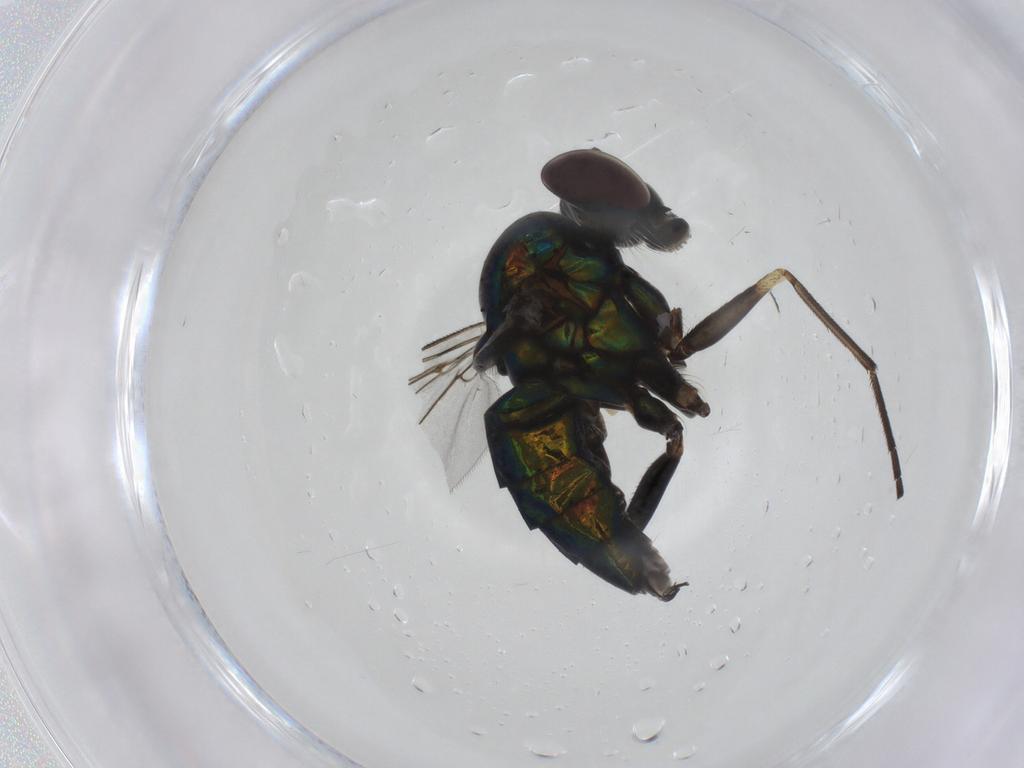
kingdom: Animalia
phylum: Arthropoda
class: Insecta
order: Diptera
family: Dolichopodidae
